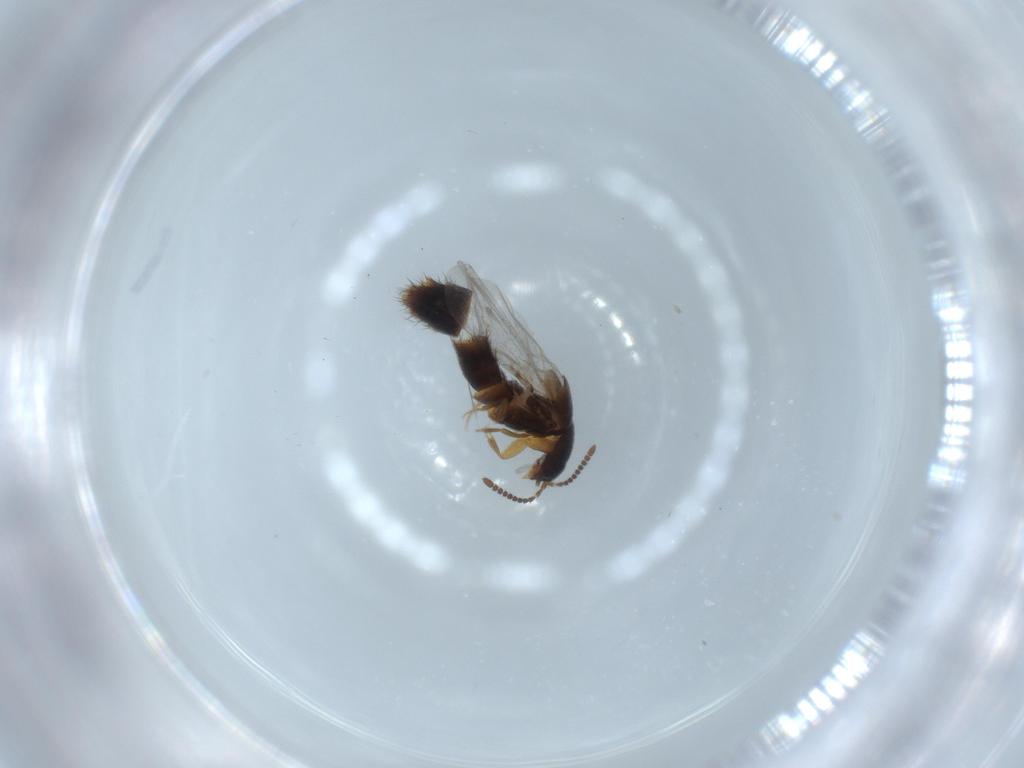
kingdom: Animalia
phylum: Arthropoda
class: Insecta
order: Coleoptera
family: Staphylinidae
